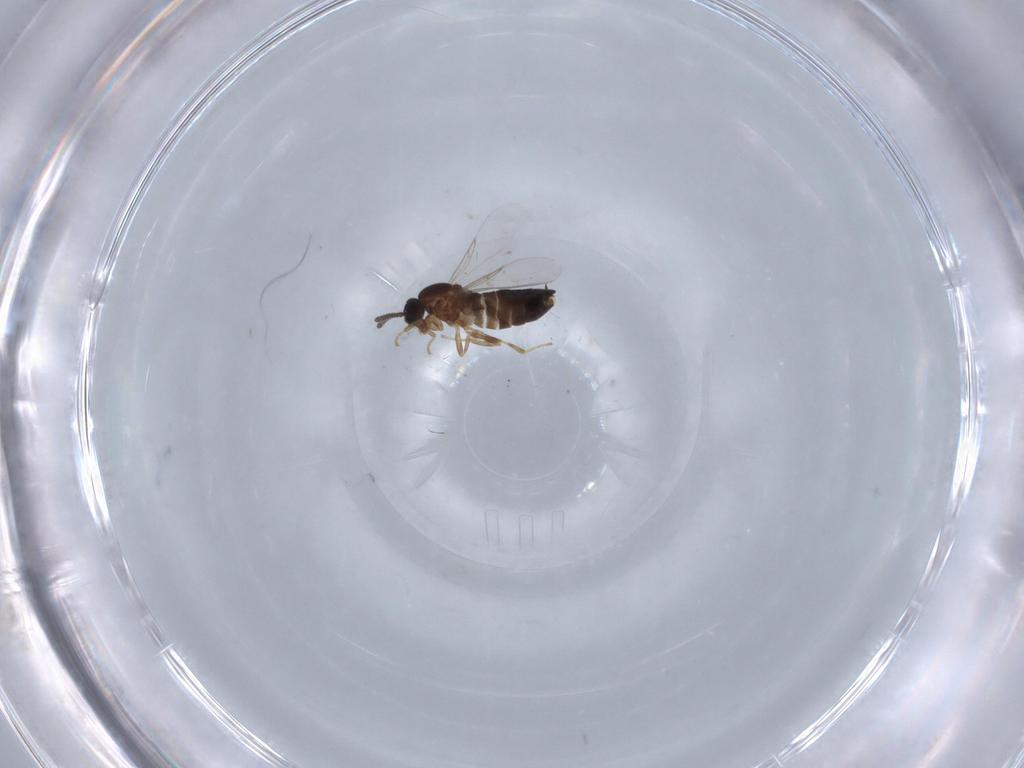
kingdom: Animalia
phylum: Arthropoda
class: Insecta
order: Diptera
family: Scatopsidae
